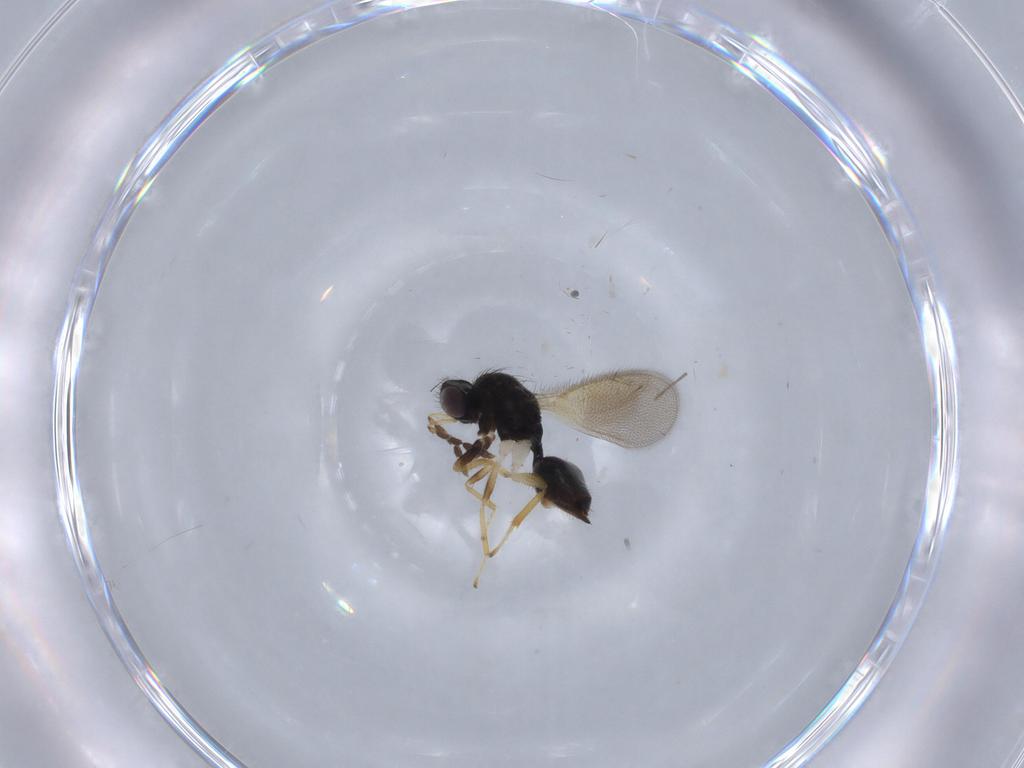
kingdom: Animalia
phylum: Arthropoda
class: Insecta
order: Hymenoptera
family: Eulophidae
